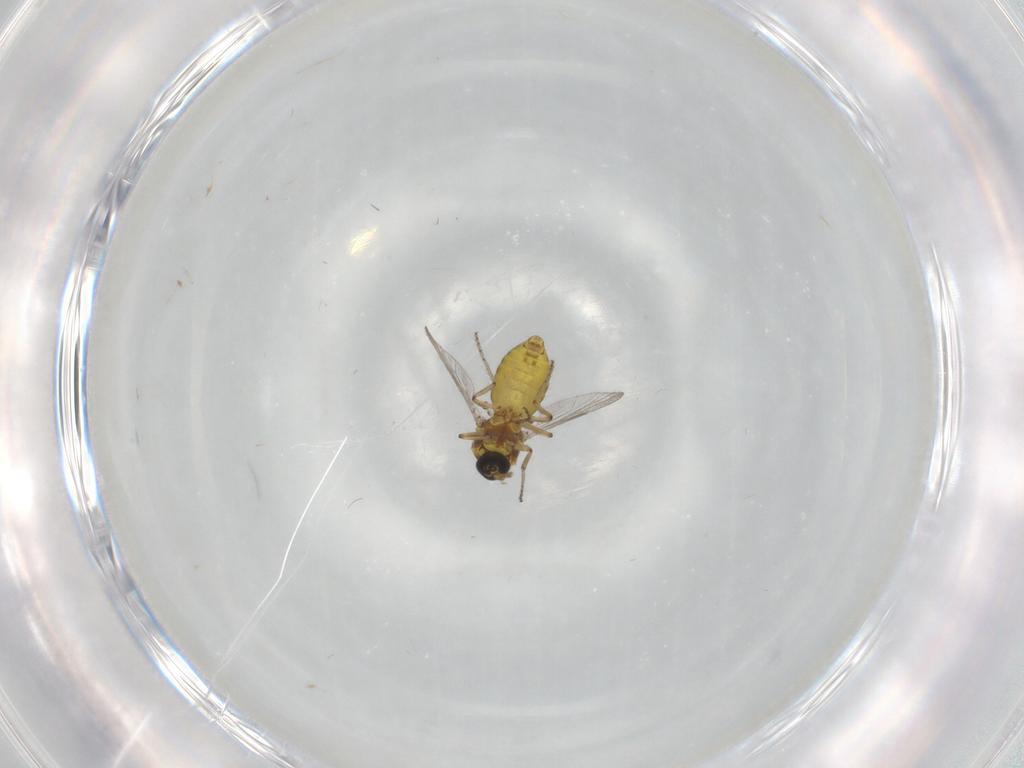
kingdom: Animalia
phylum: Arthropoda
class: Insecta
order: Diptera
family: Ceratopogonidae
